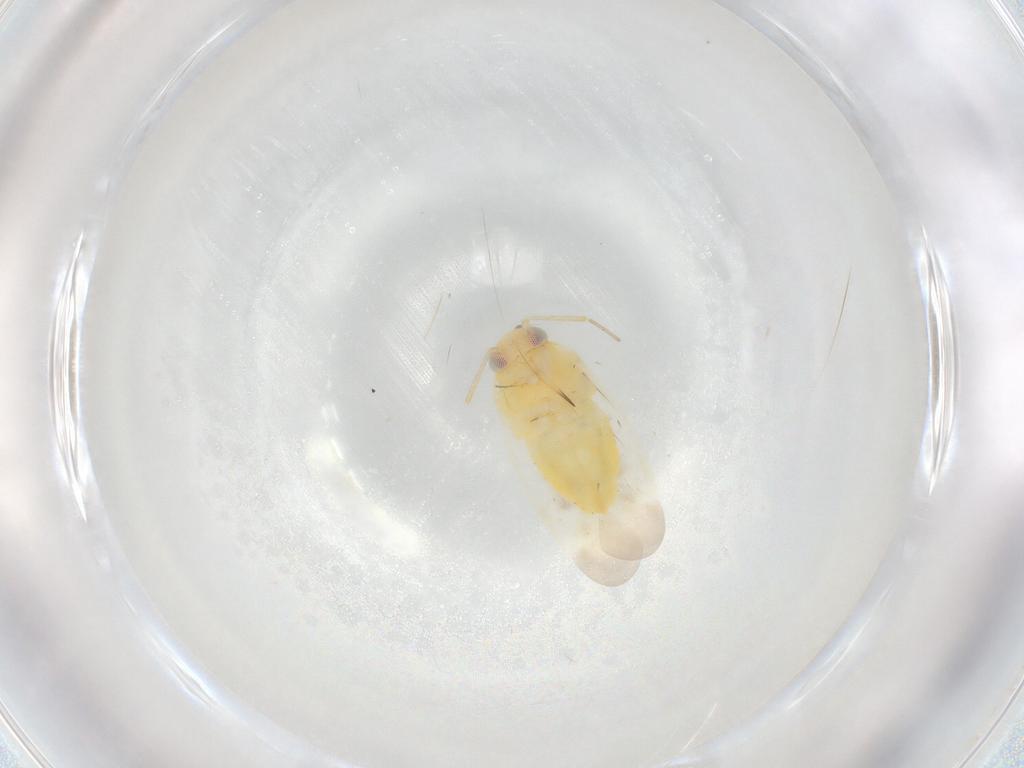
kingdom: Animalia
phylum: Arthropoda
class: Insecta
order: Hemiptera
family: Miridae
